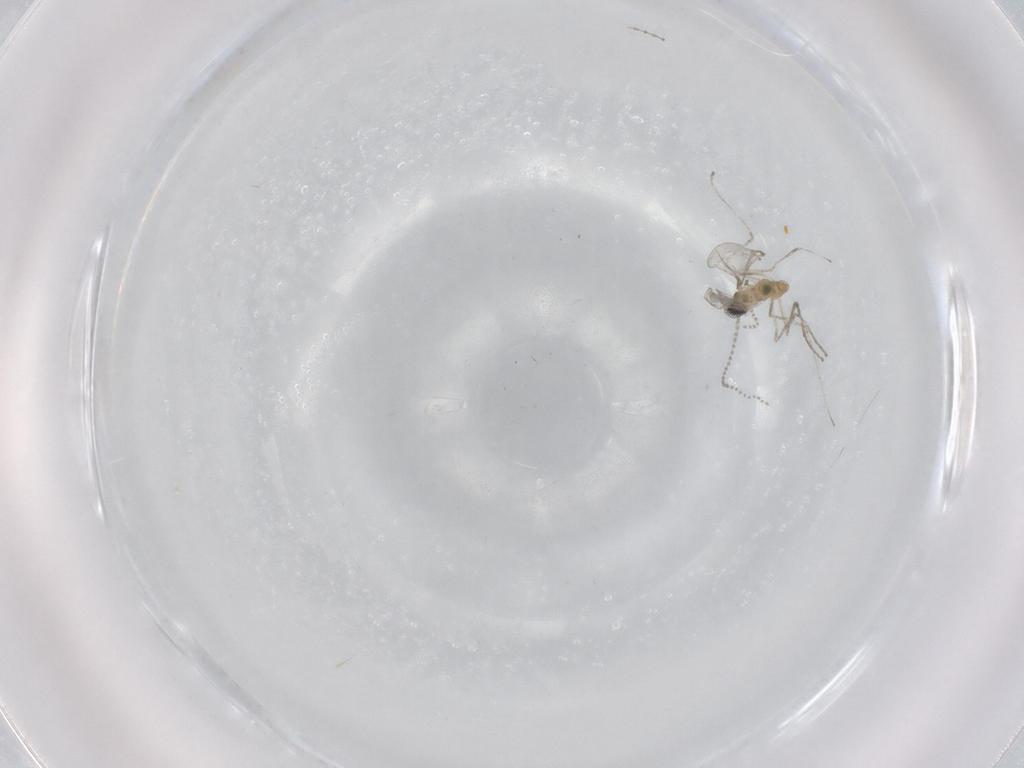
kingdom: Animalia
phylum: Arthropoda
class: Insecta
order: Diptera
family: Cecidomyiidae
